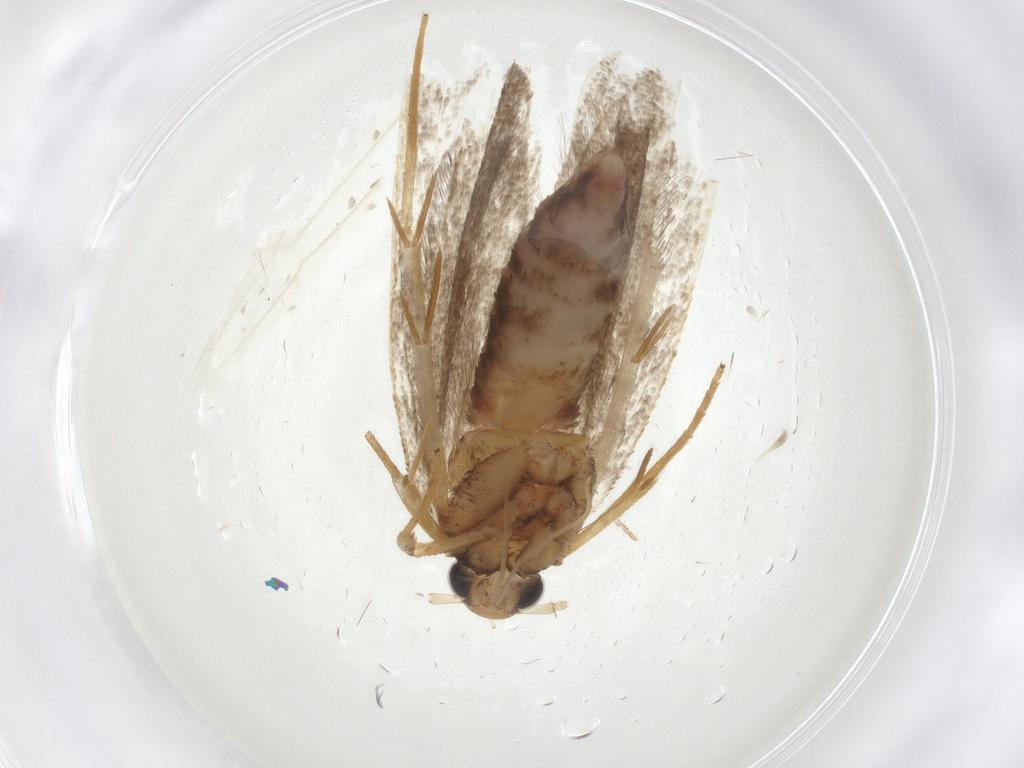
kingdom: Animalia
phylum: Arthropoda
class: Insecta
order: Lepidoptera
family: Lecithoceridae
